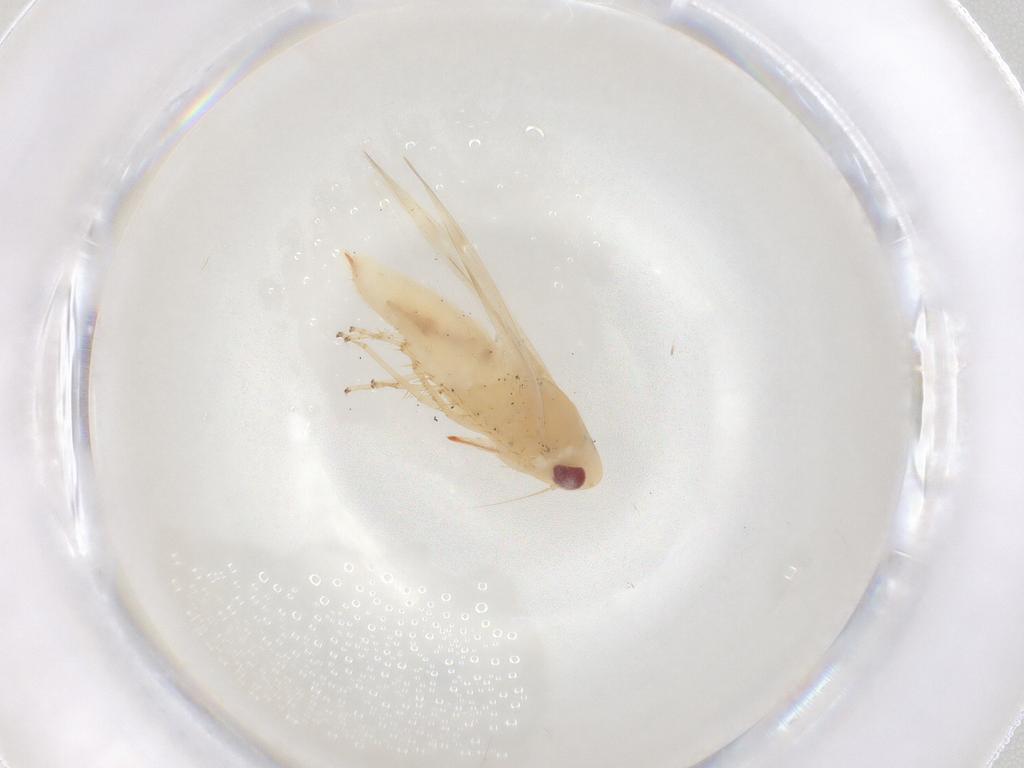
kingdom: Animalia
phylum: Arthropoda
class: Insecta
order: Hemiptera
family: Cicadellidae
